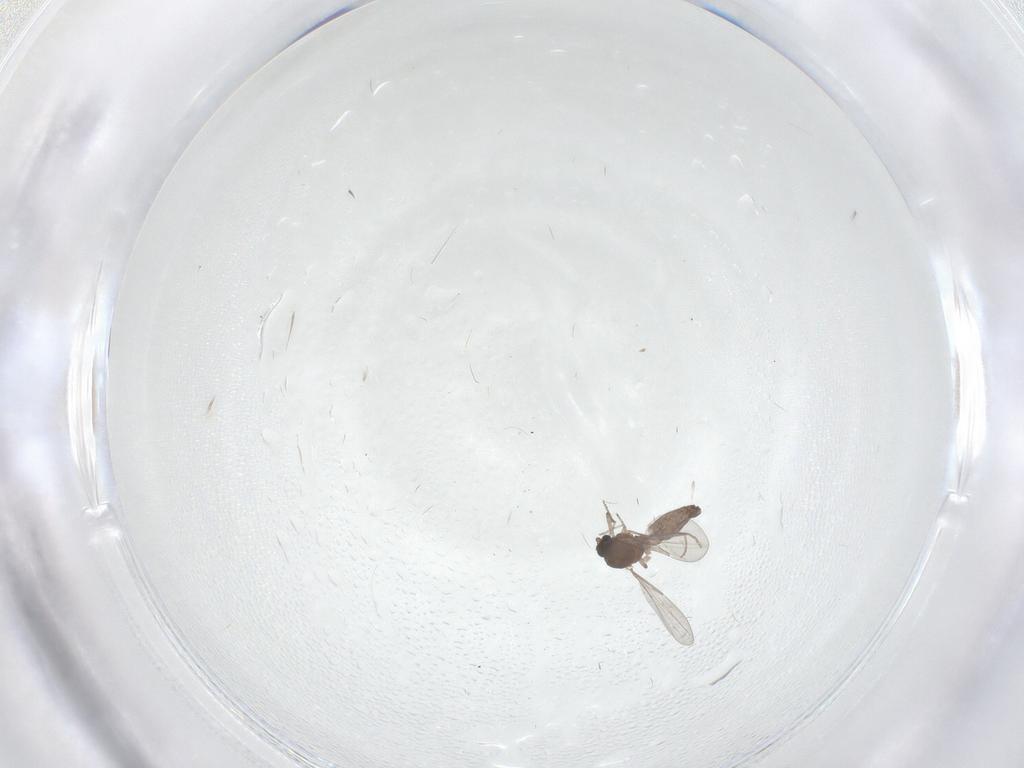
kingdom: Animalia
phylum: Arthropoda
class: Insecta
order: Diptera
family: Ceratopogonidae
